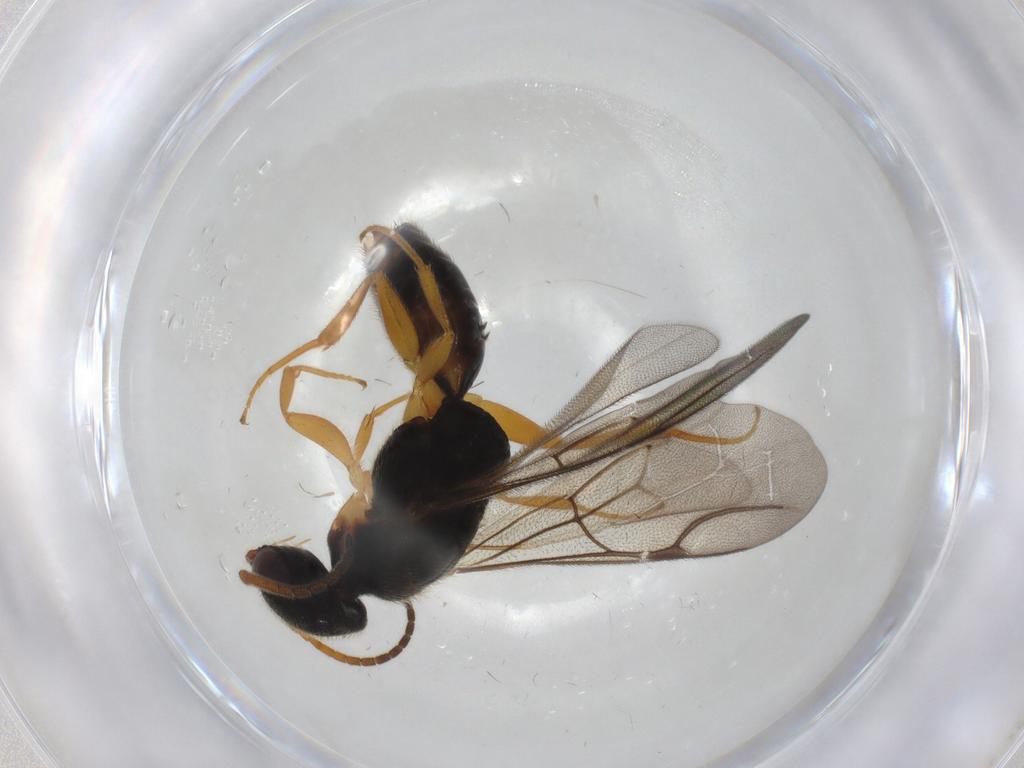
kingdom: Animalia
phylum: Arthropoda
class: Insecta
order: Hymenoptera
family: Bethylidae
